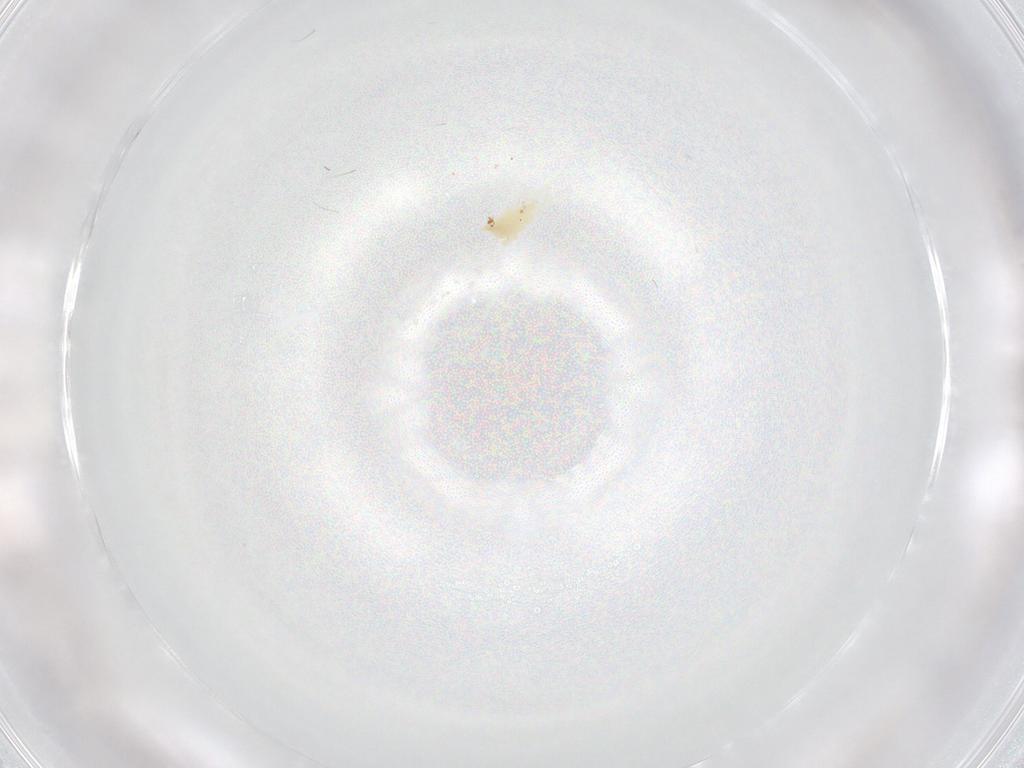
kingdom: Animalia
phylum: Arthropoda
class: Arachnida
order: Trombidiformes
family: Eupodidae
